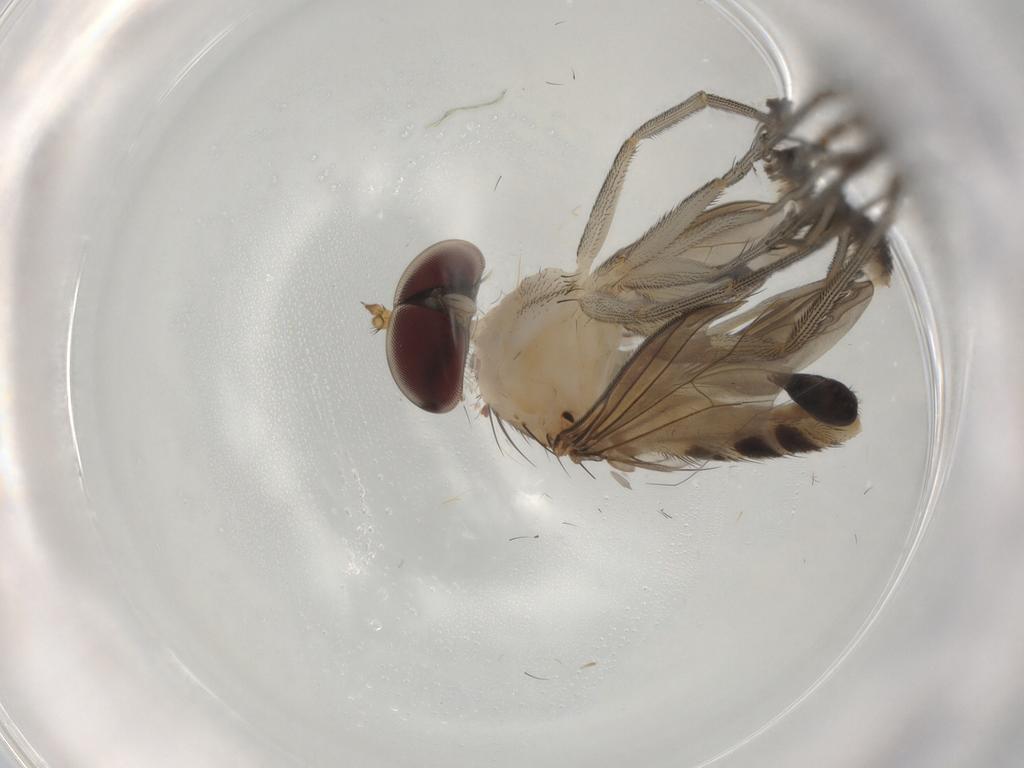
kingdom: Animalia
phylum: Arthropoda
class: Insecta
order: Diptera
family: Dolichopodidae
